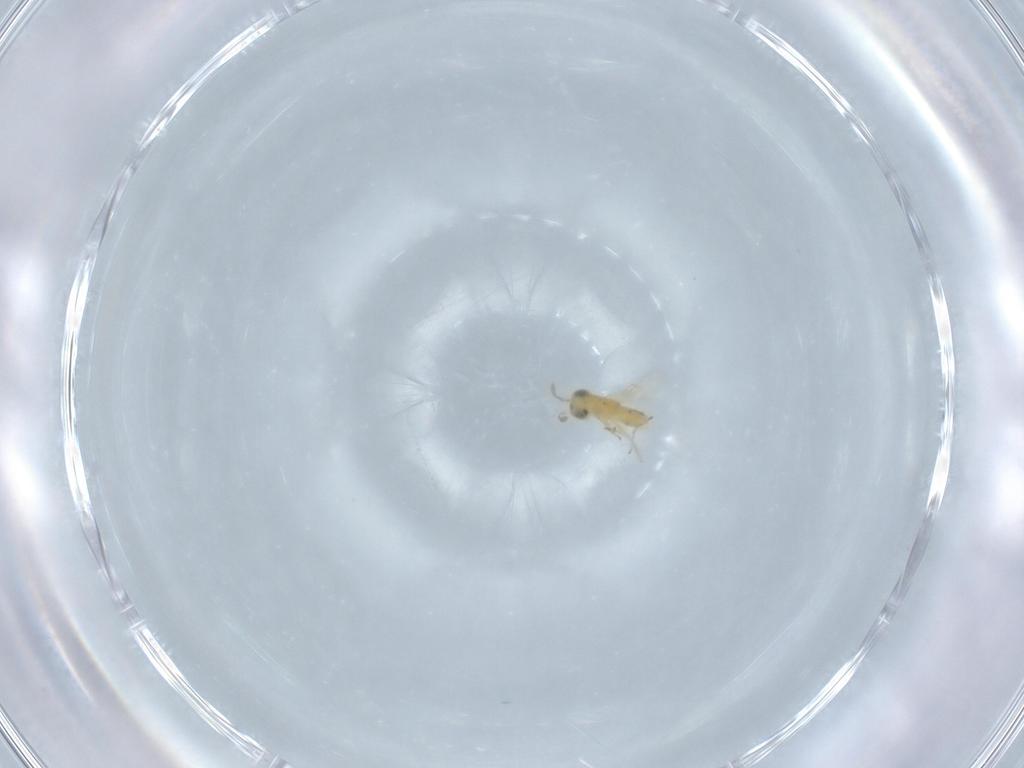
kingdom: Animalia
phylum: Arthropoda
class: Insecta
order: Hymenoptera
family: Encyrtidae
